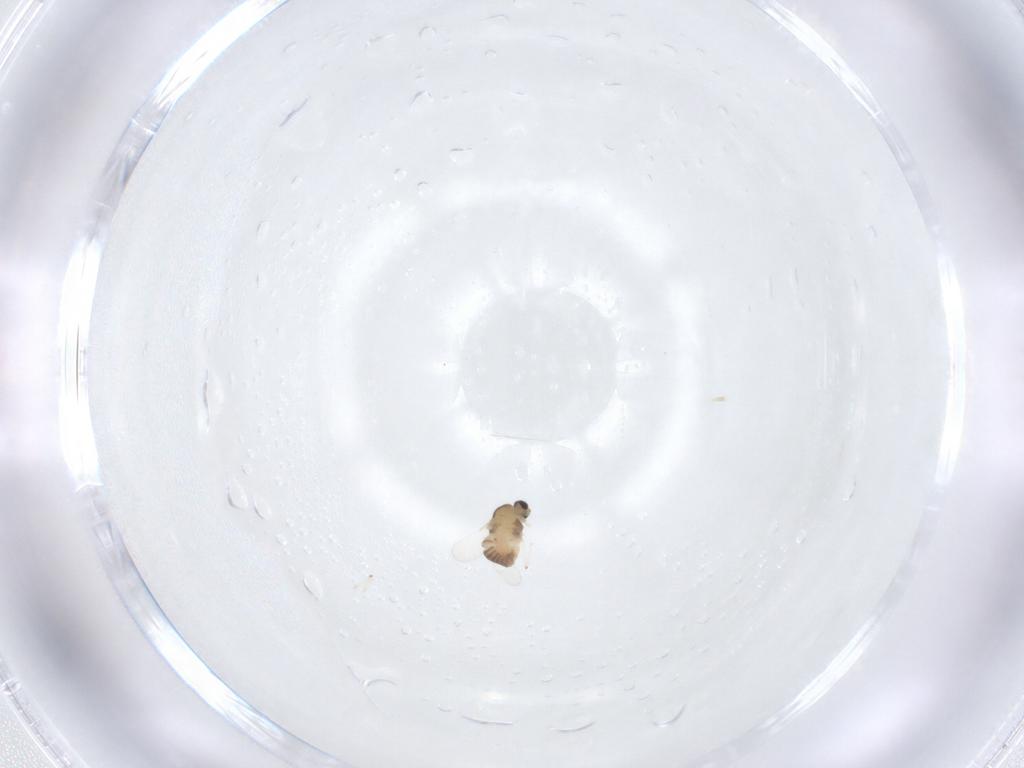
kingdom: Animalia
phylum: Arthropoda
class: Insecta
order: Diptera
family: Chironomidae
